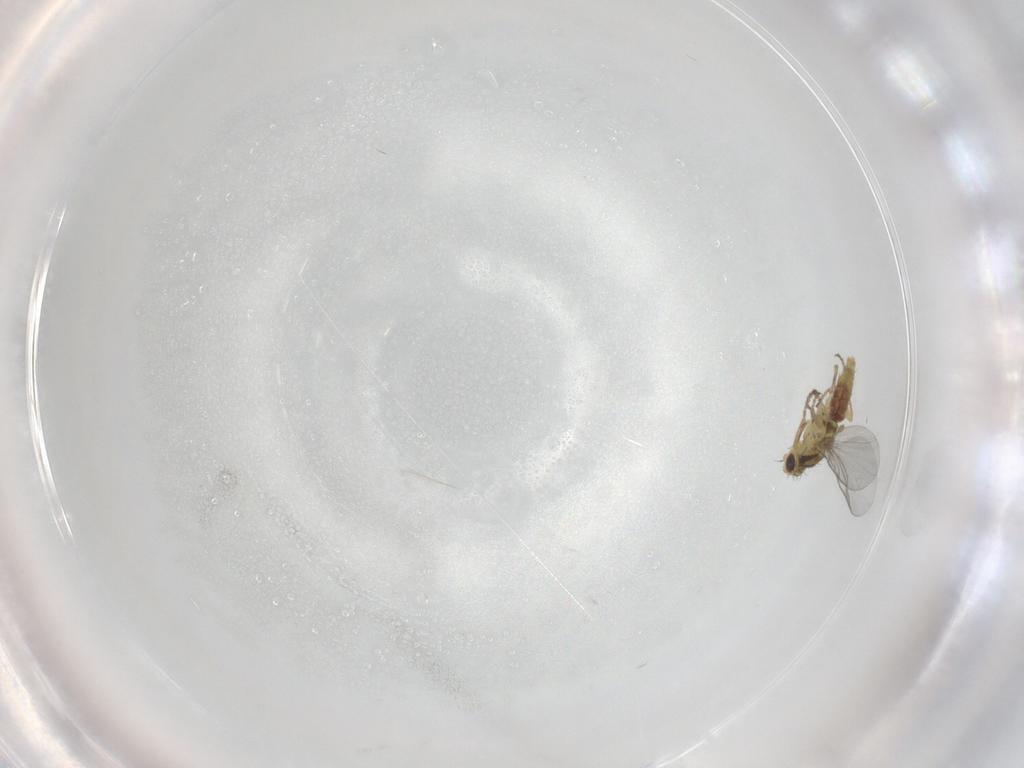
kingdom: Animalia
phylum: Arthropoda
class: Insecta
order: Diptera
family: Agromyzidae
